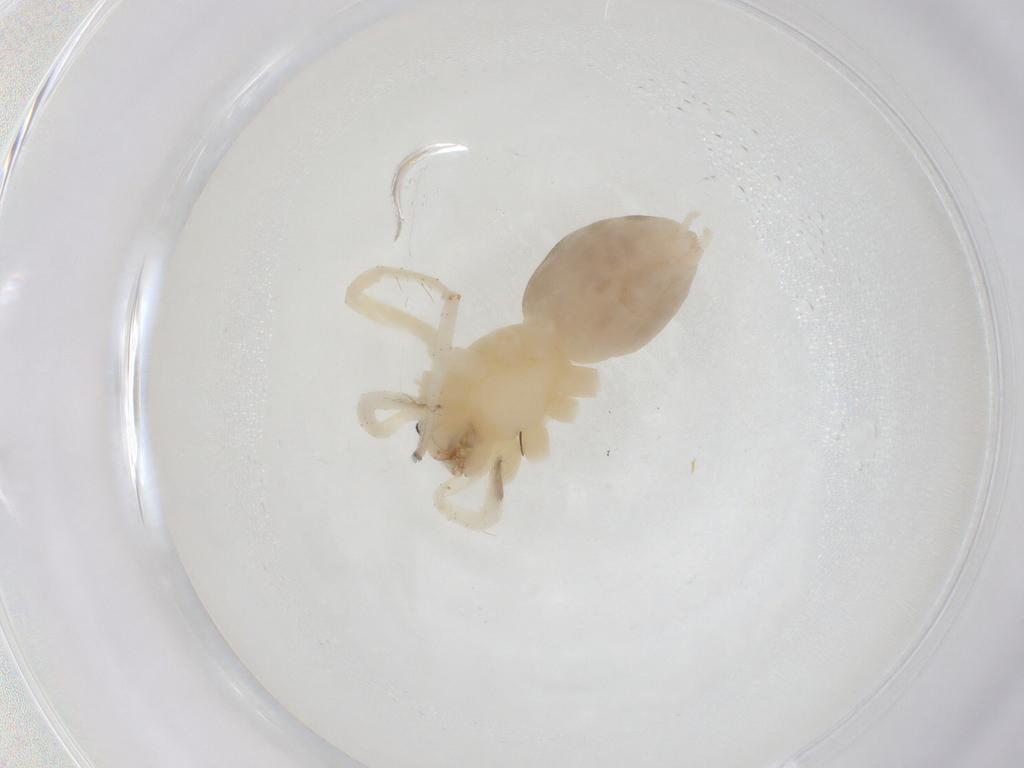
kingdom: Animalia
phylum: Arthropoda
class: Arachnida
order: Araneae
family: Anyphaenidae
